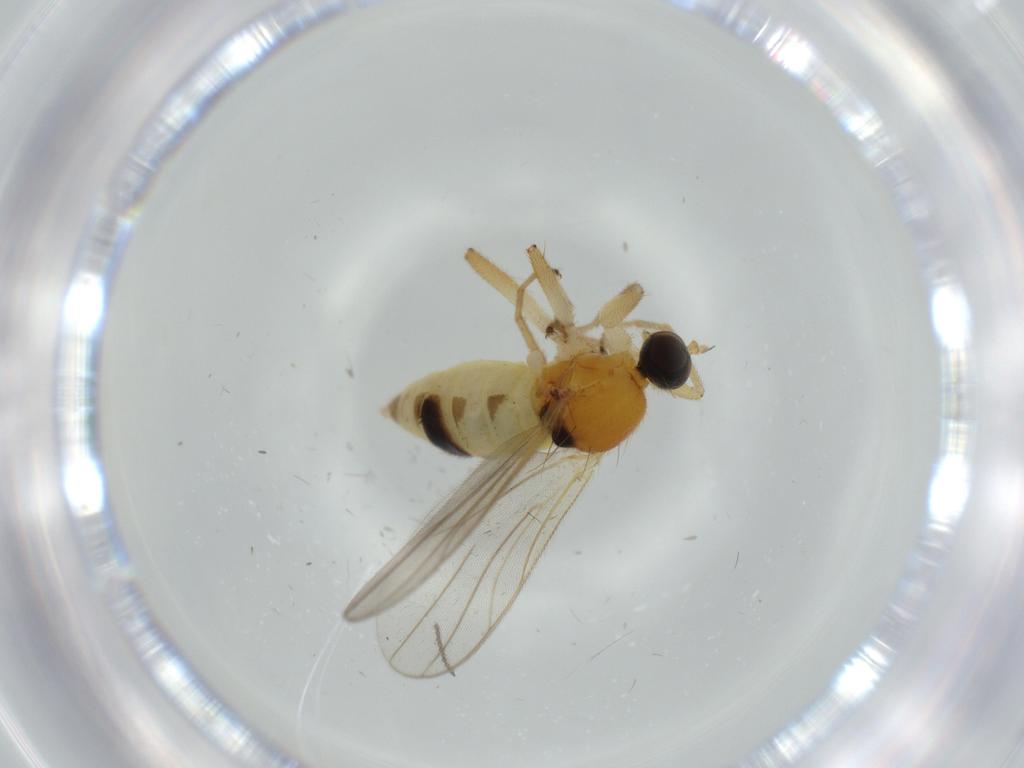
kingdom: Animalia
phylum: Arthropoda
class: Insecta
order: Diptera
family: Hybotidae
